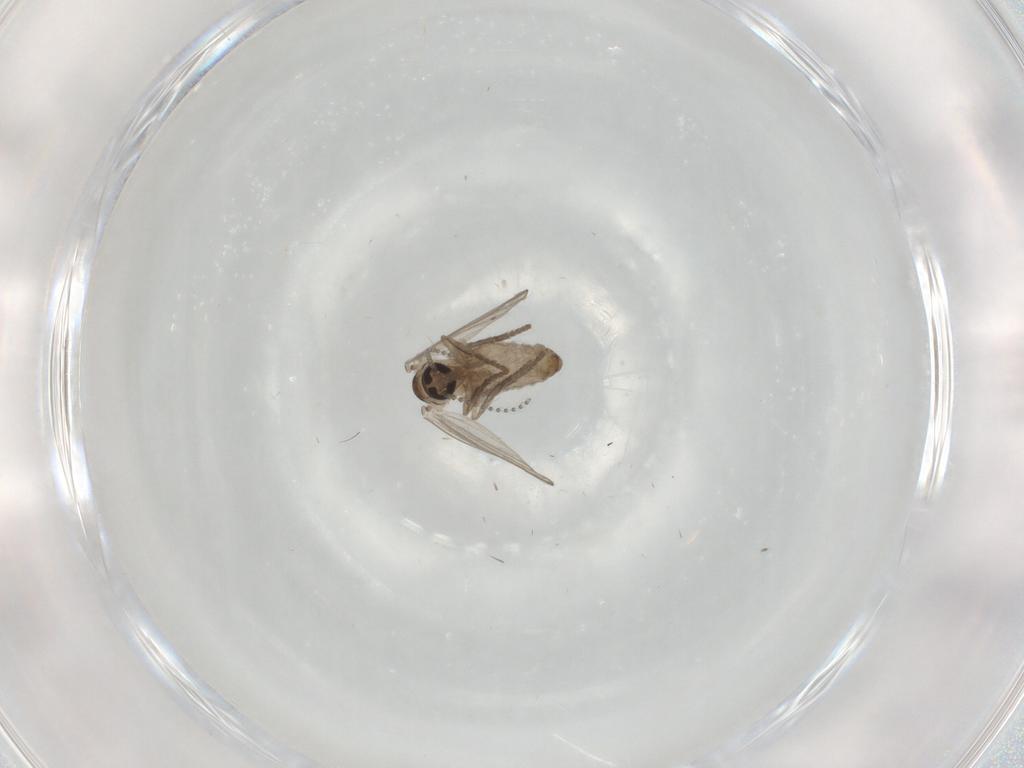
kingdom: Animalia
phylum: Arthropoda
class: Insecta
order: Diptera
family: Psychodidae
